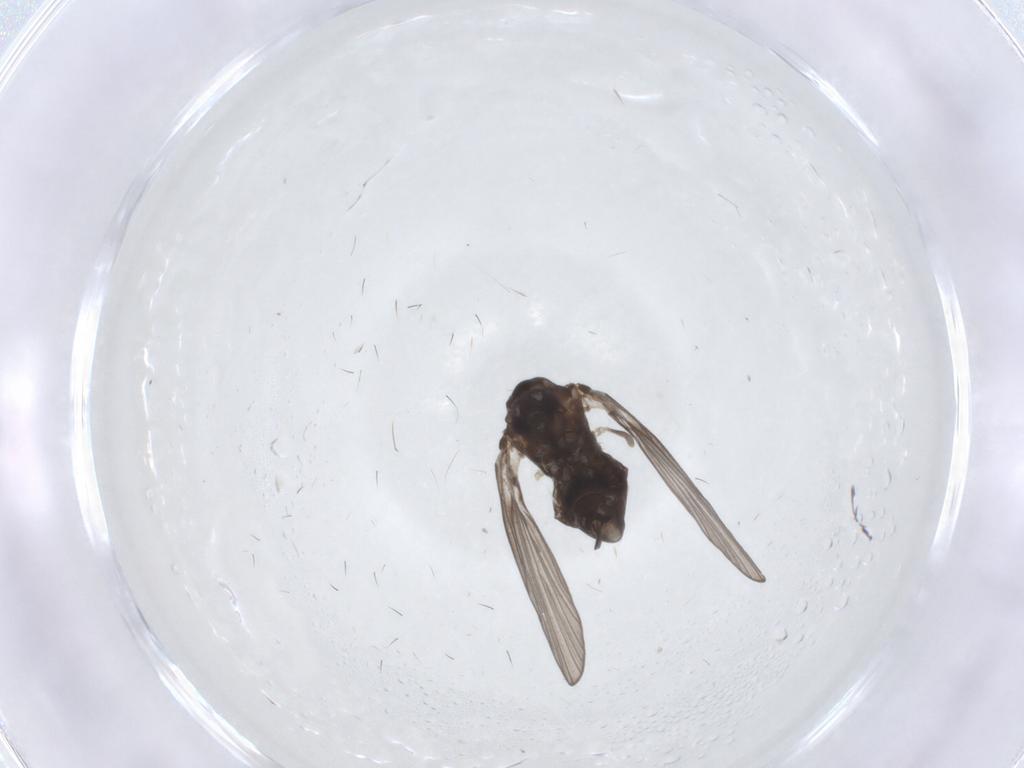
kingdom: Animalia
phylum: Arthropoda
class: Insecta
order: Diptera
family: Psychodidae
